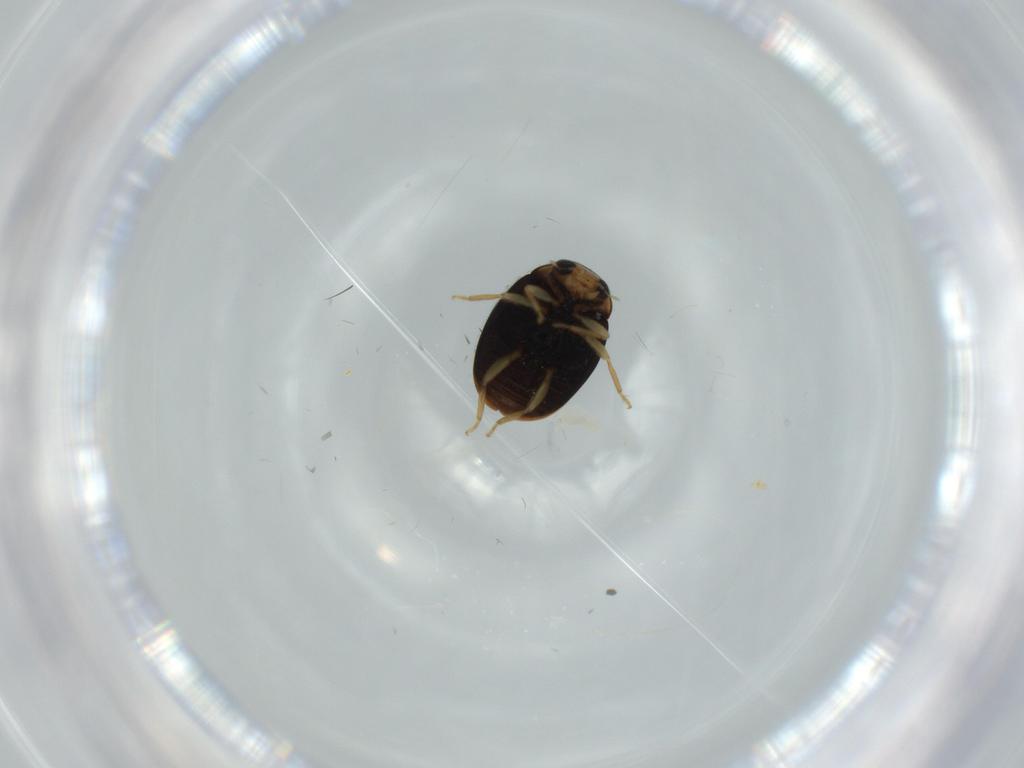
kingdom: Animalia
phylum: Arthropoda
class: Insecta
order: Coleoptera
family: Coccinellidae
